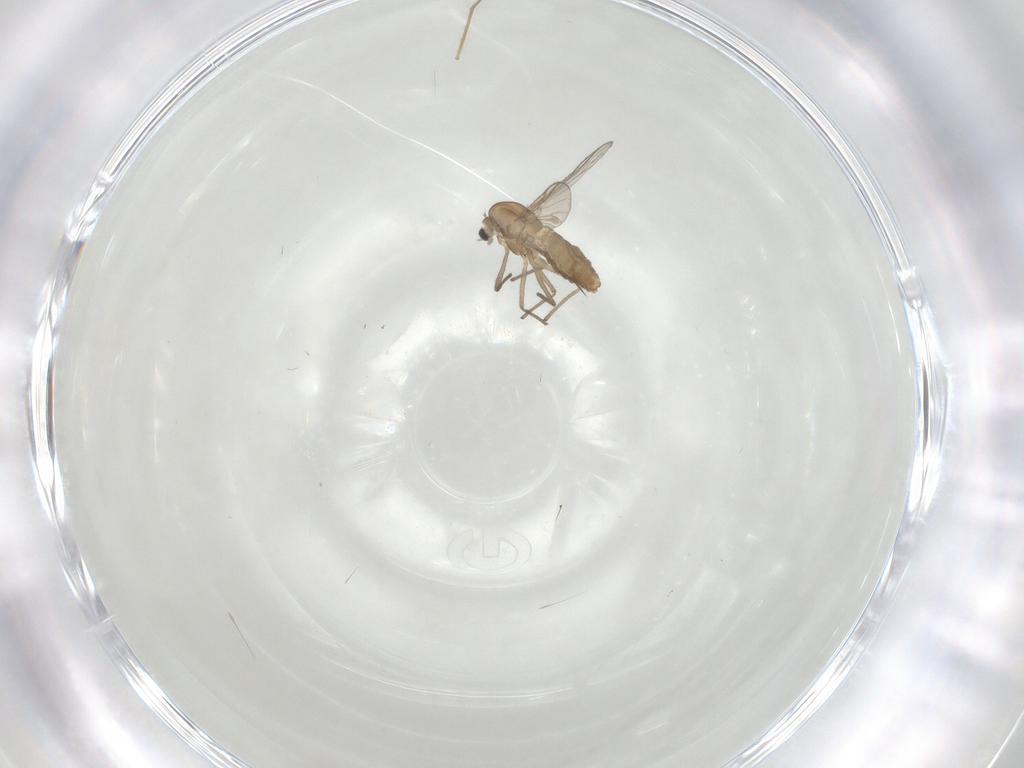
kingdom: Animalia
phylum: Arthropoda
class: Insecta
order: Diptera
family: Chironomidae
